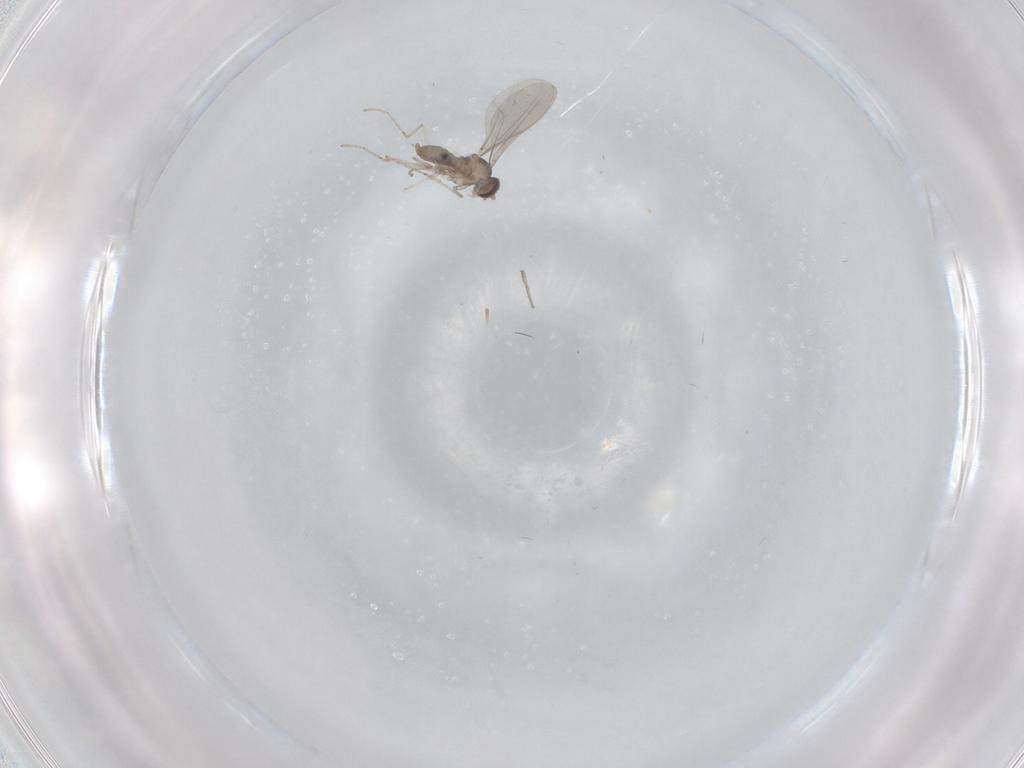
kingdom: Animalia
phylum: Arthropoda
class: Insecta
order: Diptera
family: Cecidomyiidae
